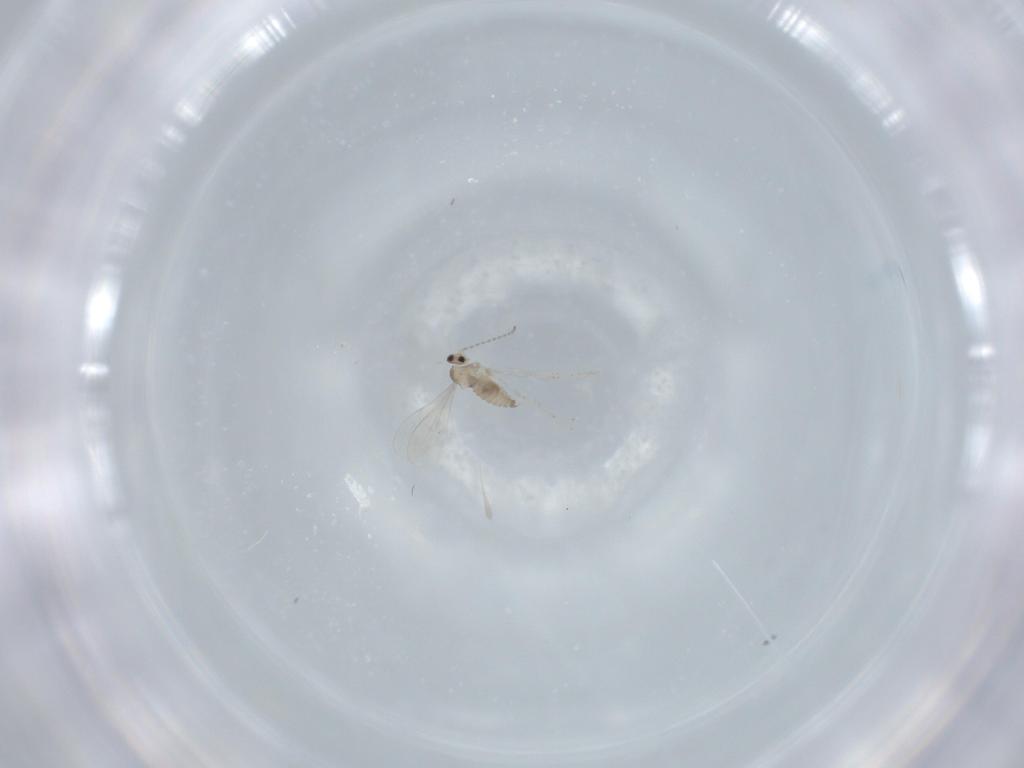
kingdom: Animalia
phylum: Arthropoda
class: Insecta
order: Diptera
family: Cecidomyiidae
